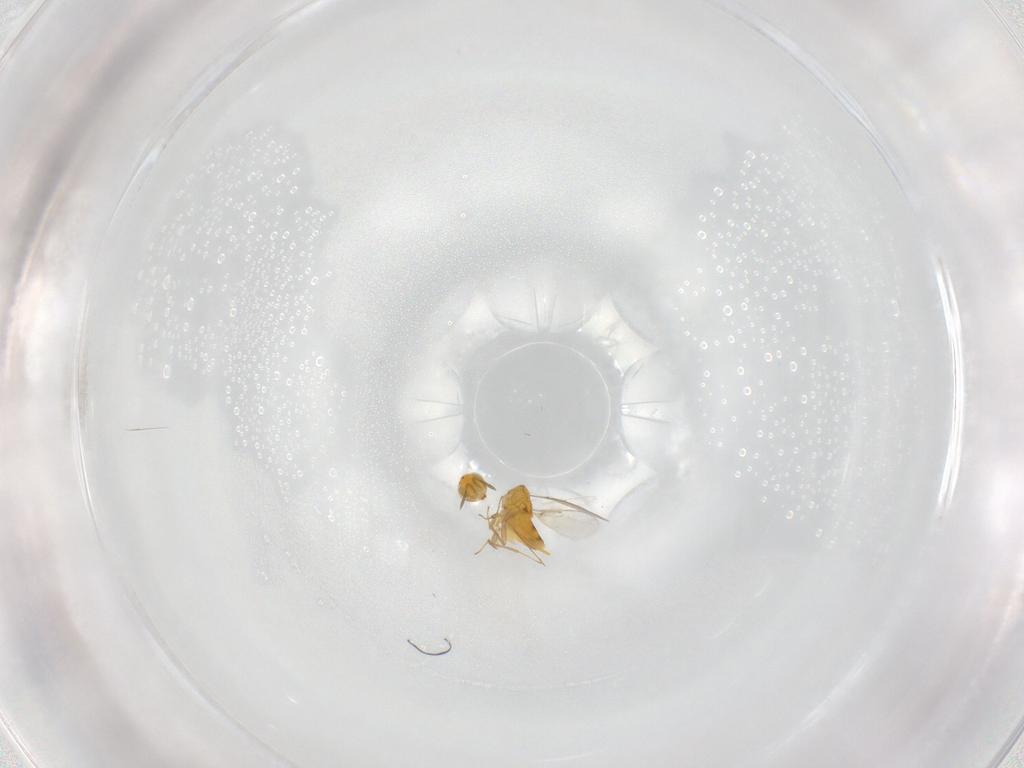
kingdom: Animalia
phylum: Arthropoda
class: Insecta
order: Hymenoptera
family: Aphelinidae
